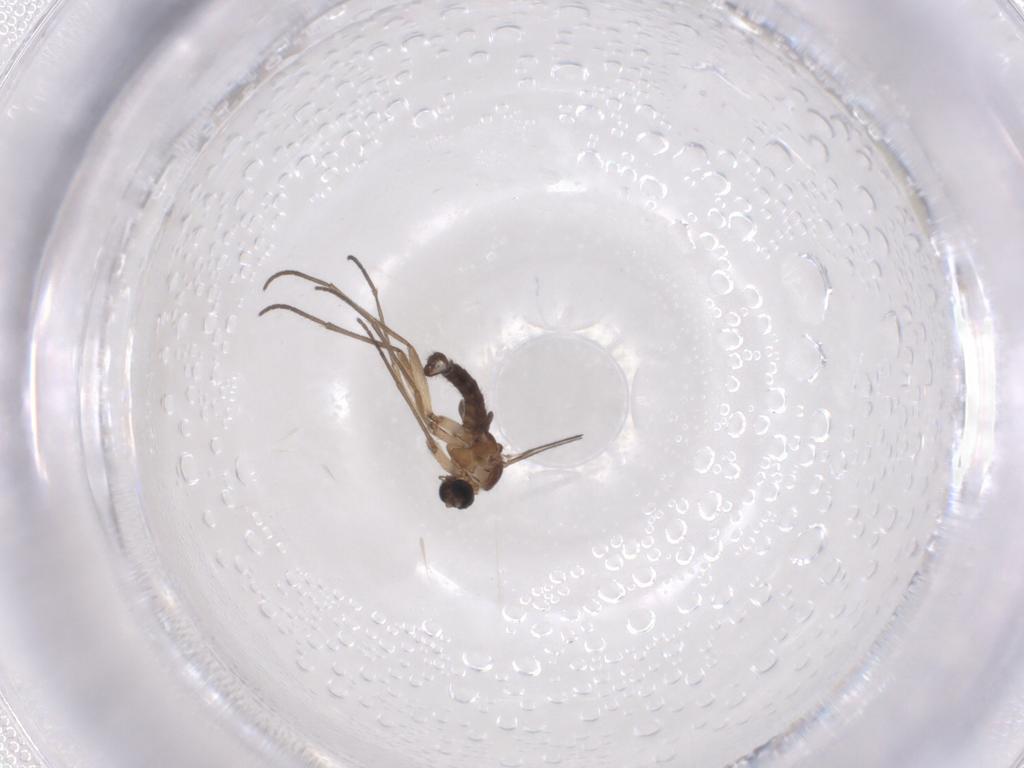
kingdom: Animalia
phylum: Arthropoda
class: Insecta
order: Diptera
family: Sciaridae
